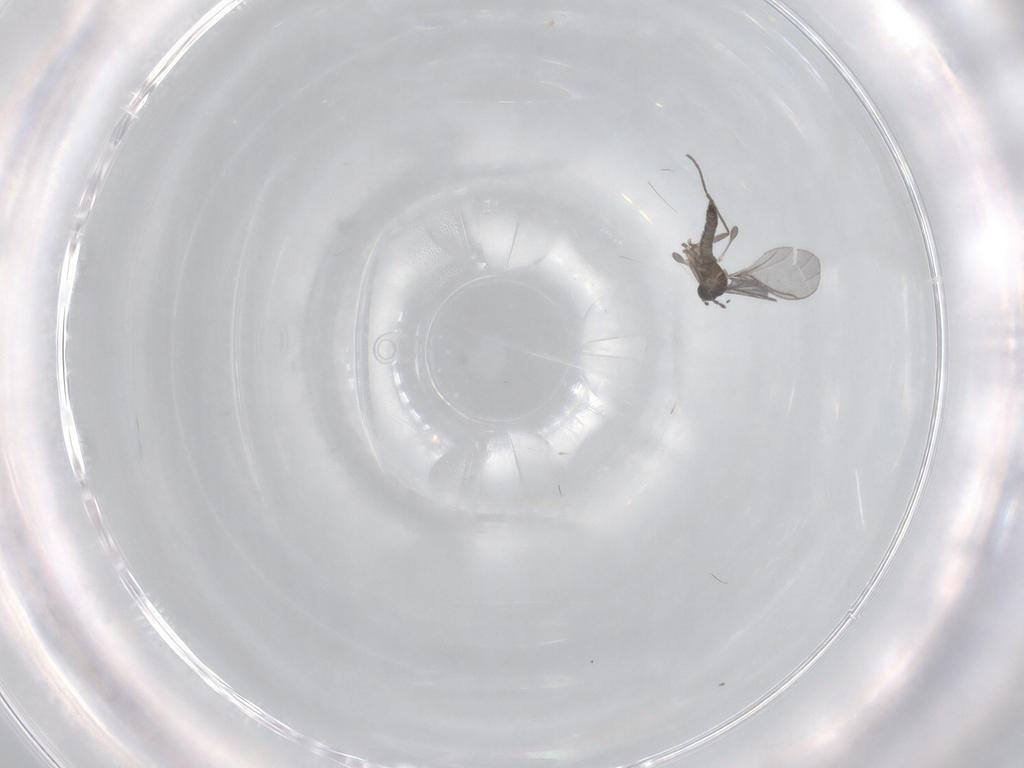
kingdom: Animalia
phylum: Arthropoda
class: Insecta
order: Diptera
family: Sciaridae
